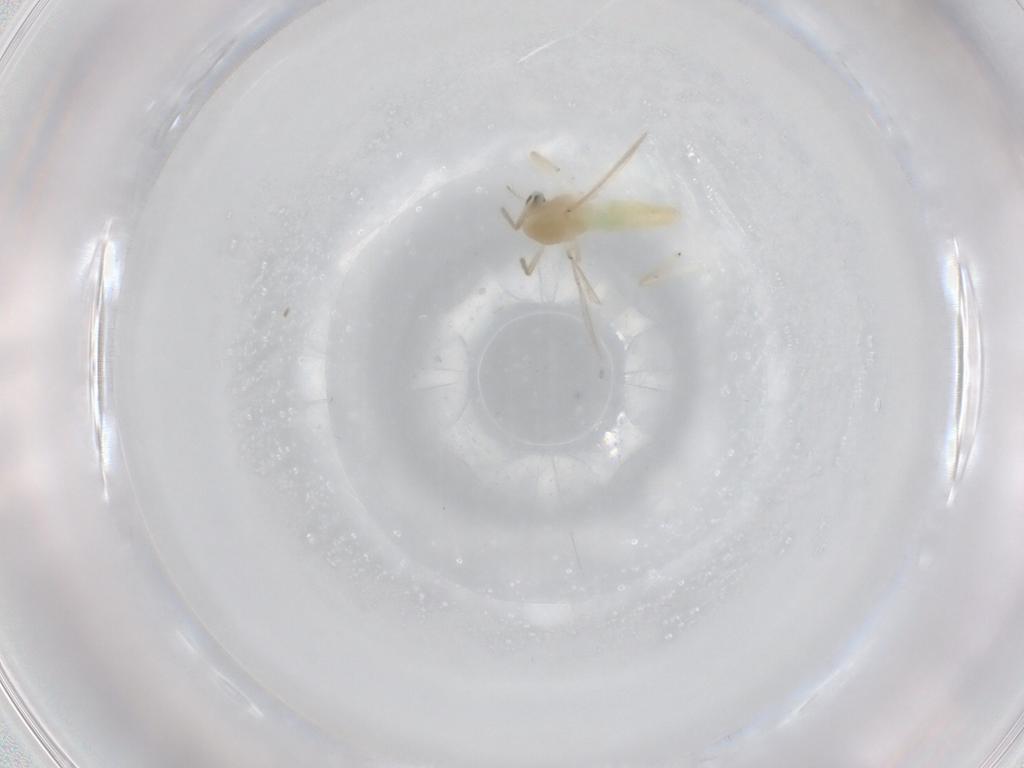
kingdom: Animalia
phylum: Arthropoda
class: Insecta
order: Diptera
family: Chironomidae
